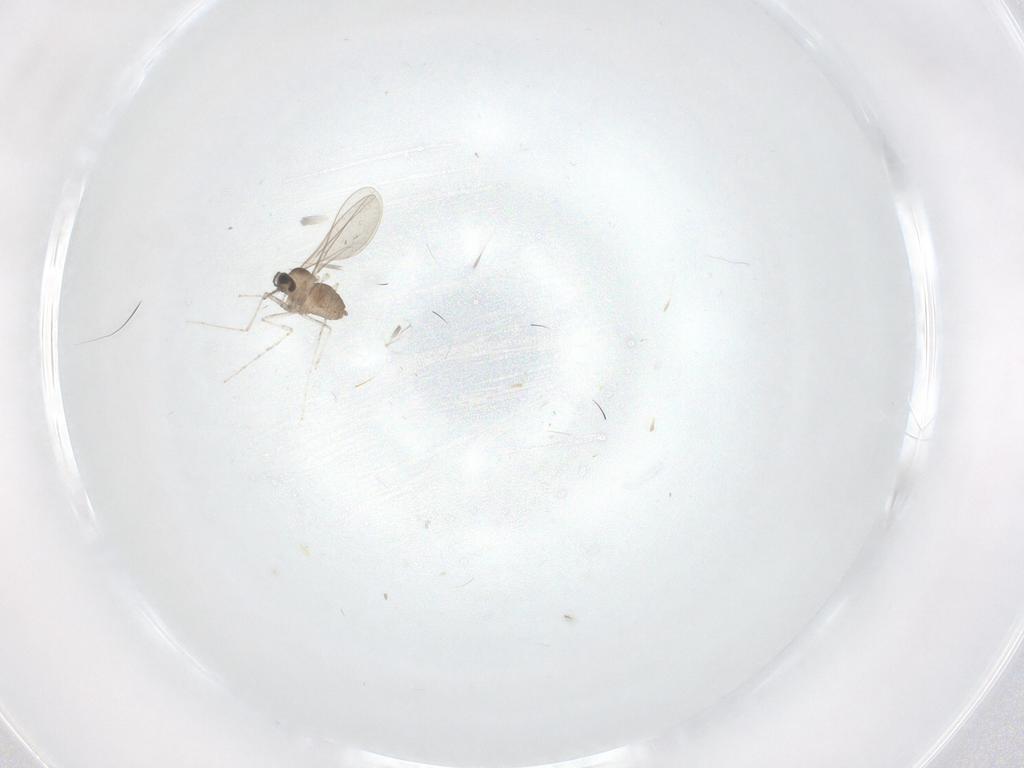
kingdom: Animalia
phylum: Arthropoda
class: Insecta
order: Diptera
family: Cecidomyiidae
